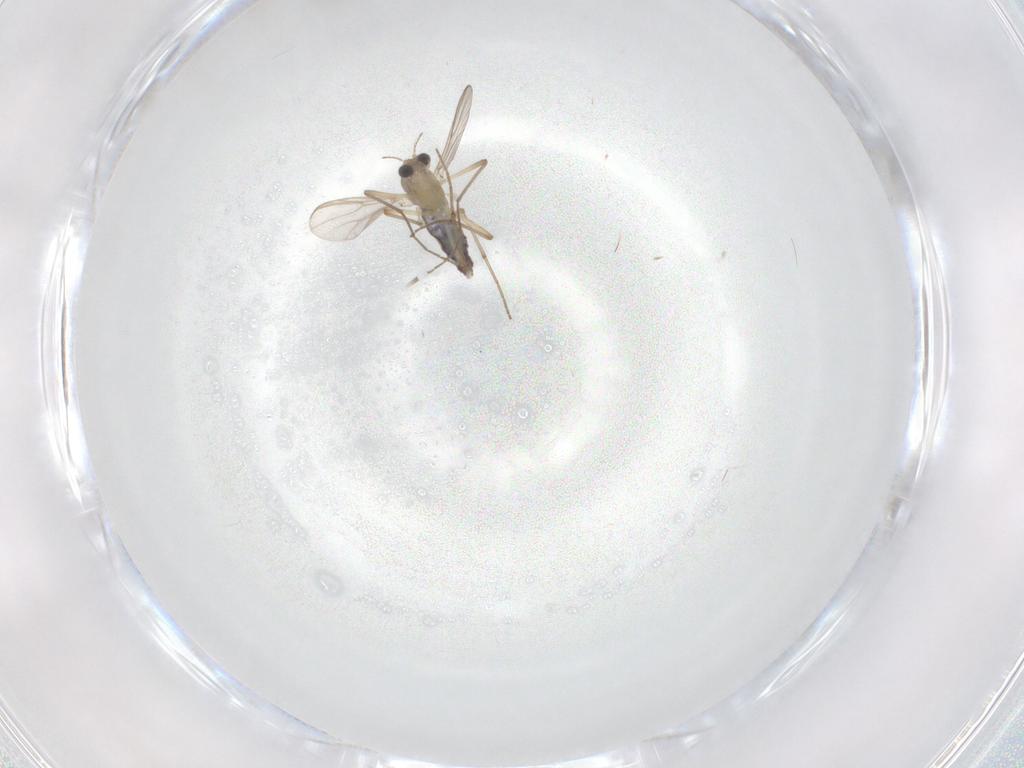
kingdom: Animalia
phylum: Arthropoda
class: Insecta
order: Diptera
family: Chironomidae
